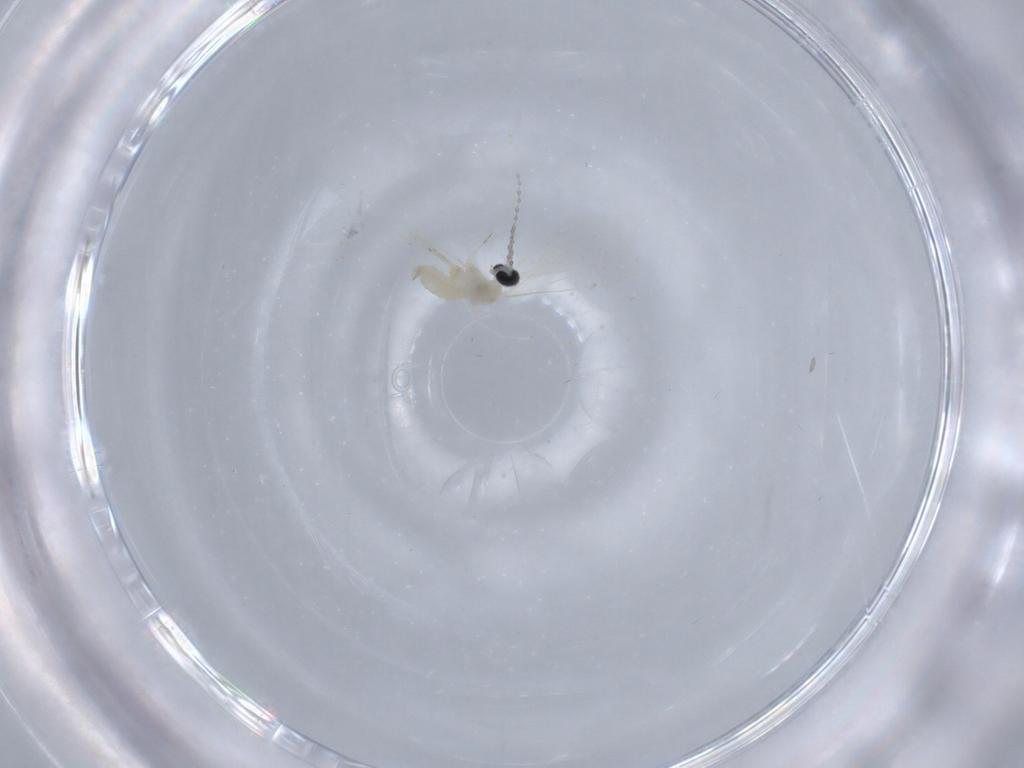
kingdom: Animalia
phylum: Arthropoda
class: Insecta
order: Diptera
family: Cecidomyiidae
